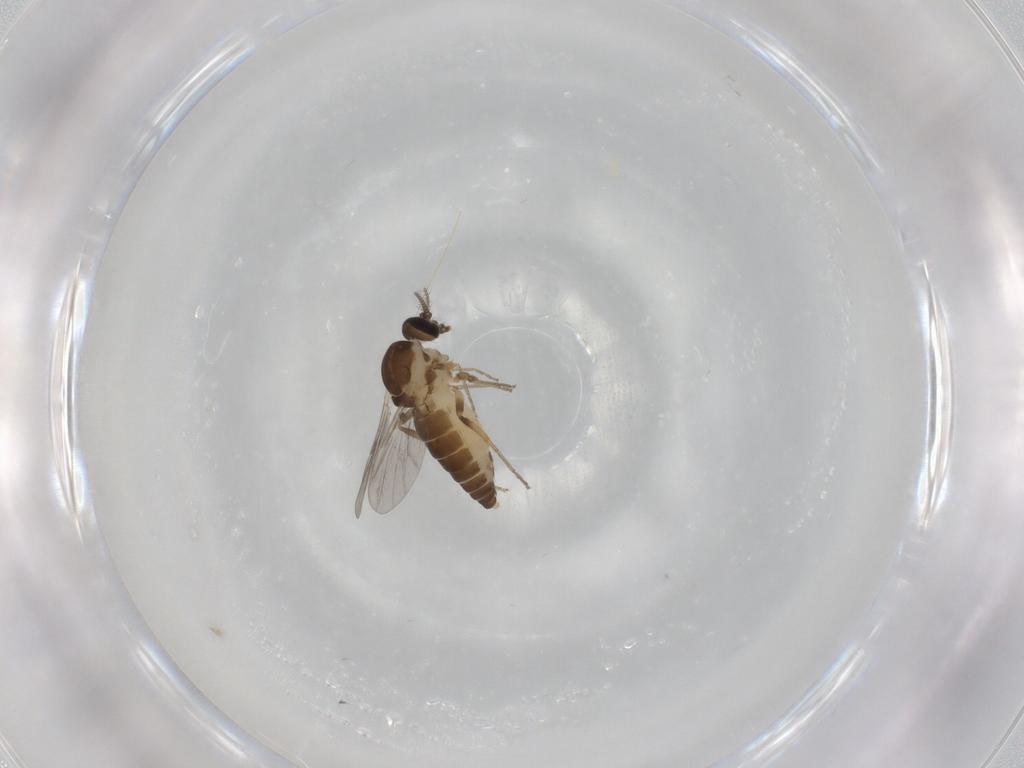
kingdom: Animalia
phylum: Arthropoda
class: Insecta
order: Diptera
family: Ceratopogonidae
